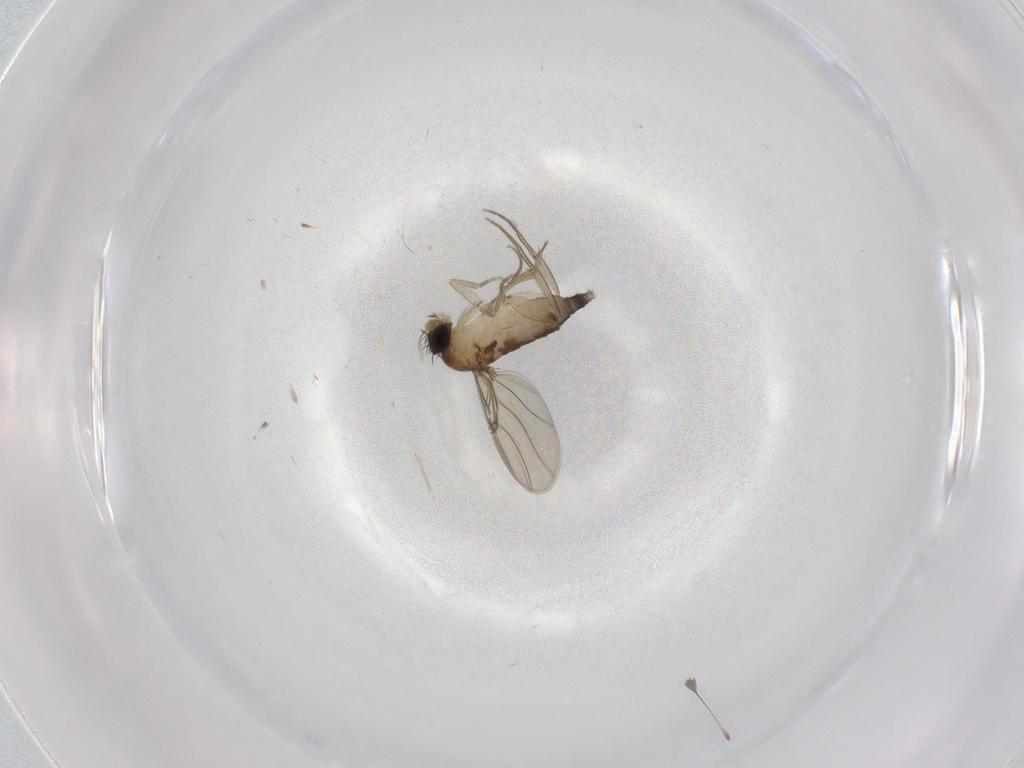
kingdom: Animalia
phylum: Arthropoda
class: Insecta
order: Diptera
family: Phoridae
